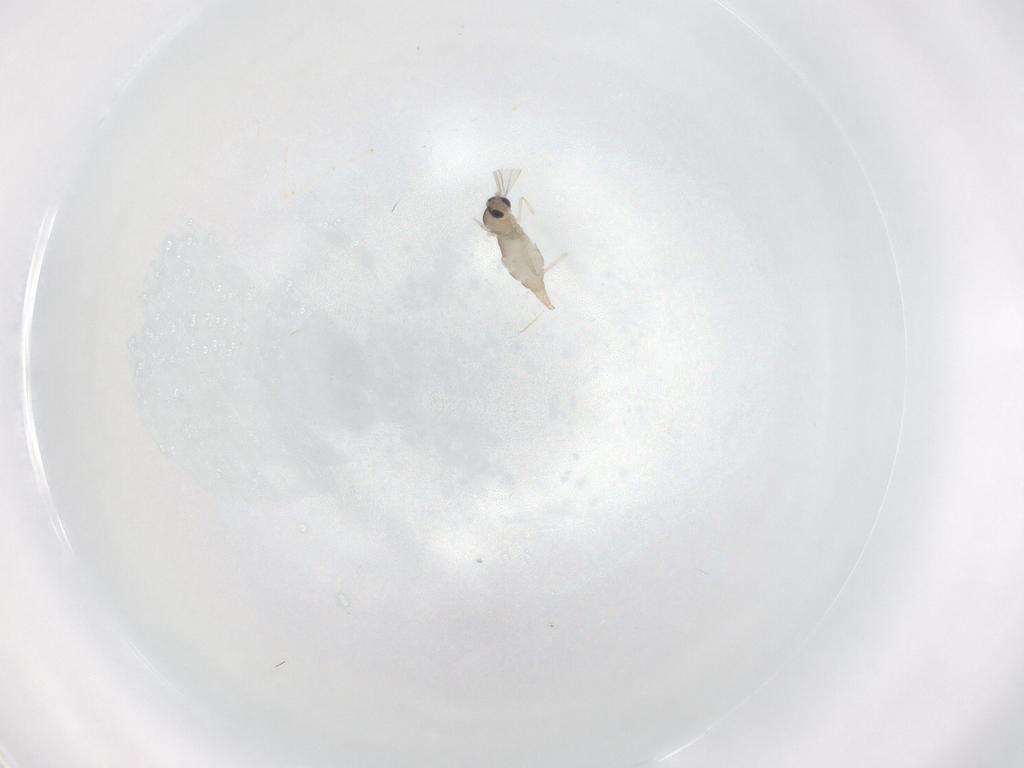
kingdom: Animalia
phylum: Arthropoda
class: Insecta
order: Diptera
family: Ceratopogonidae
